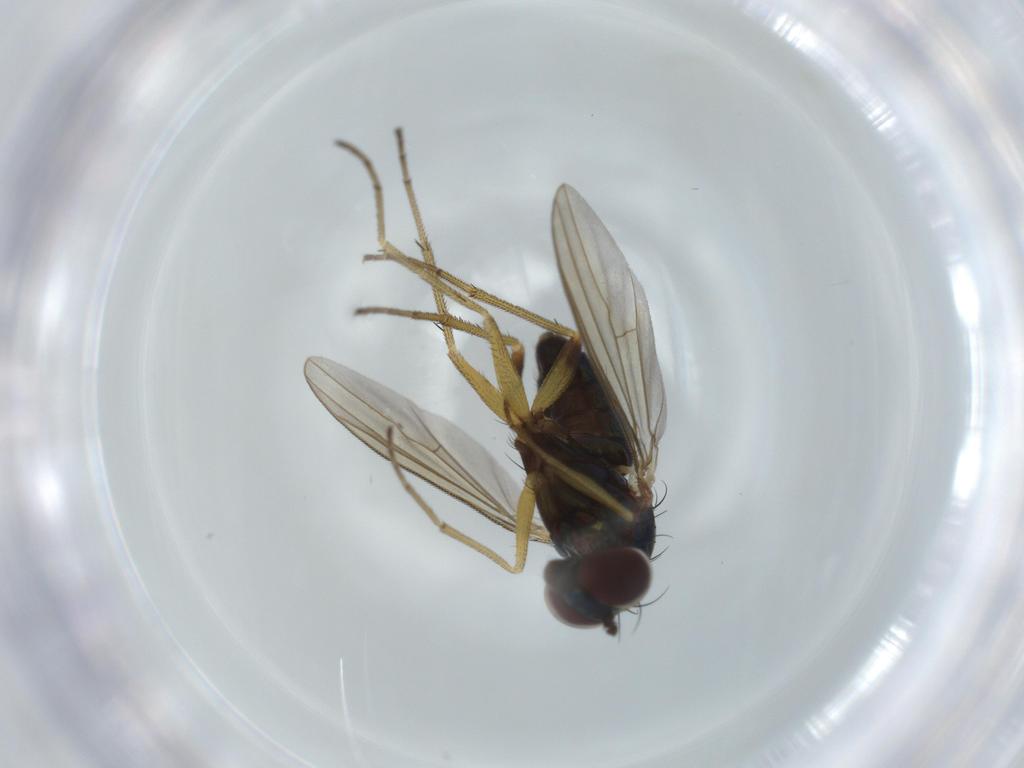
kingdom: Animalia
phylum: Arthropoda
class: Insecta
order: Diptera
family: Dolichopodidae
